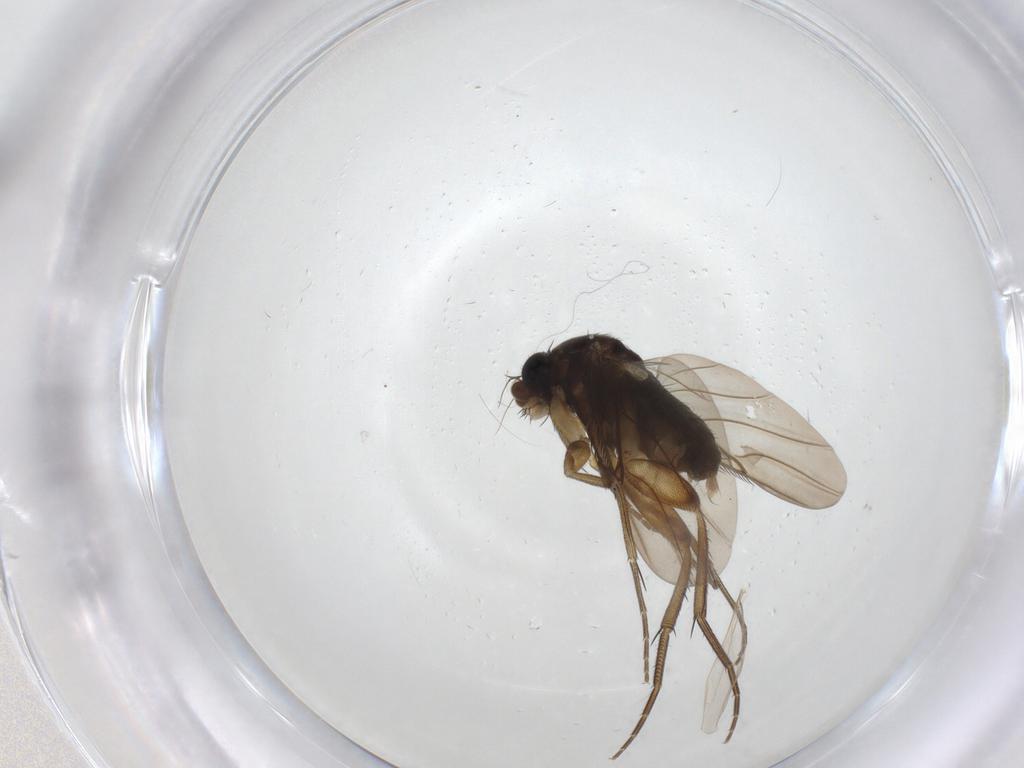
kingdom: Animalia
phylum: Arthropoda
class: Insecta
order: Diptera
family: Phoridae
